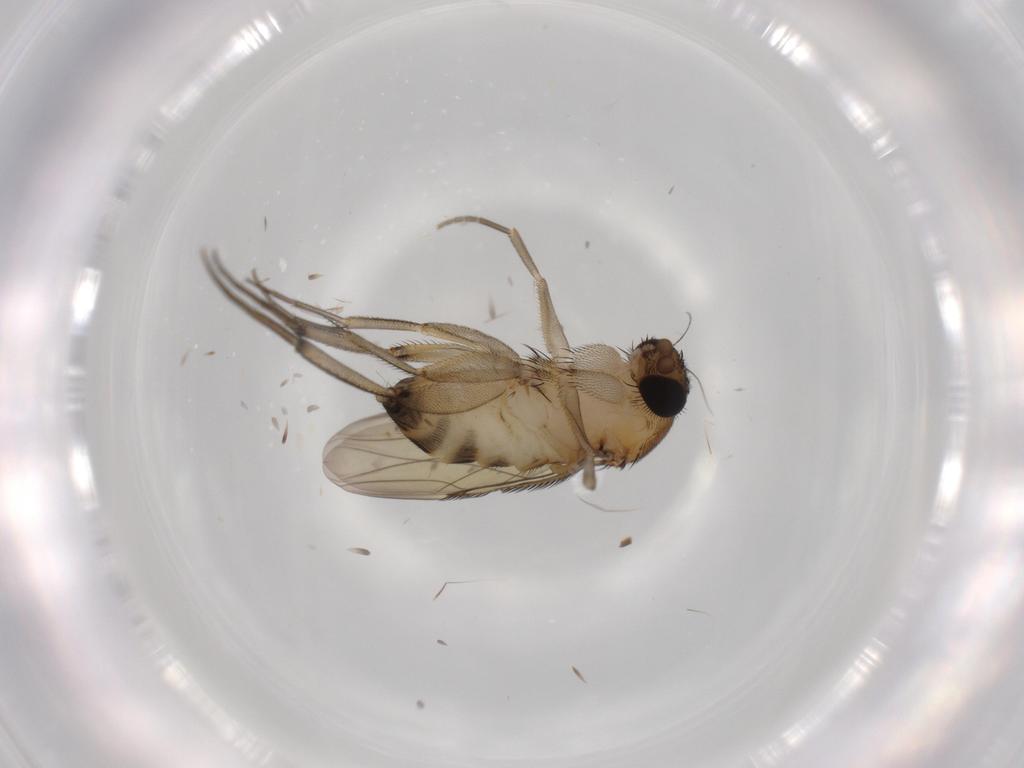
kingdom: Animalia
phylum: Arthropoda
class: Insecta
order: Diptera
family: Phoridae
